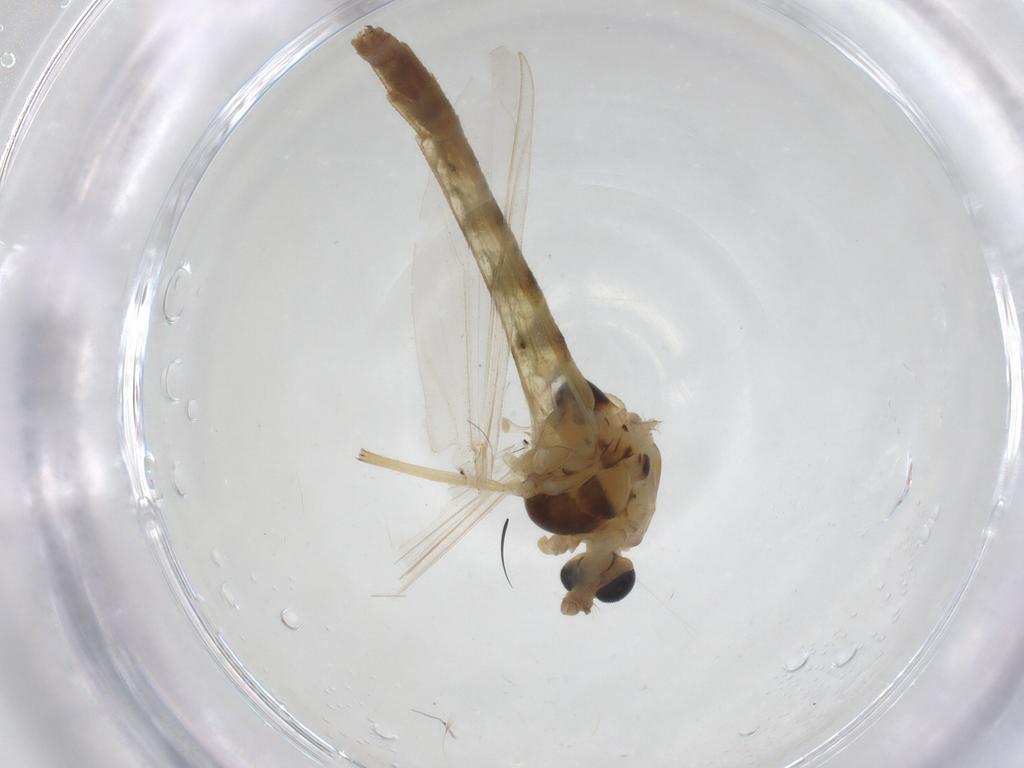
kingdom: Animalia
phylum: Arthropoda
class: Insecta
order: Diptera
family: Chironomidae
